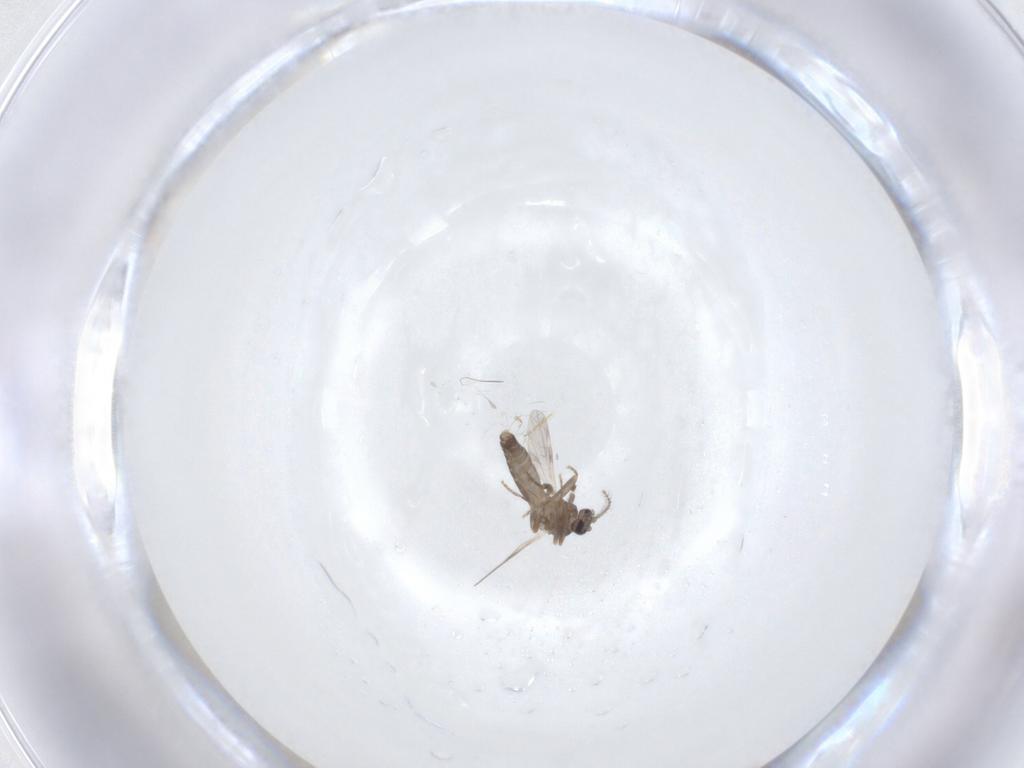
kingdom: Animalia
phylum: Arthropoda
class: Insecta
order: Diptera
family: Ceratopogonidae
